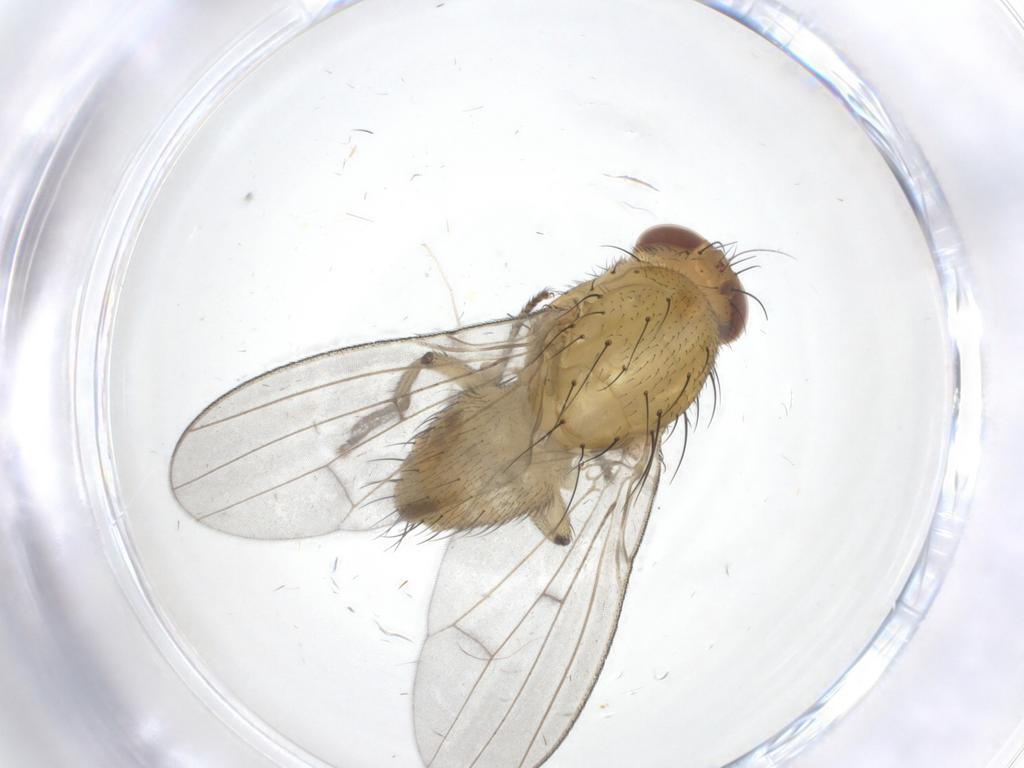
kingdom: Animalia
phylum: Arthropoda
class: Insecta
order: Diptera
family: Cecidomyiidae
